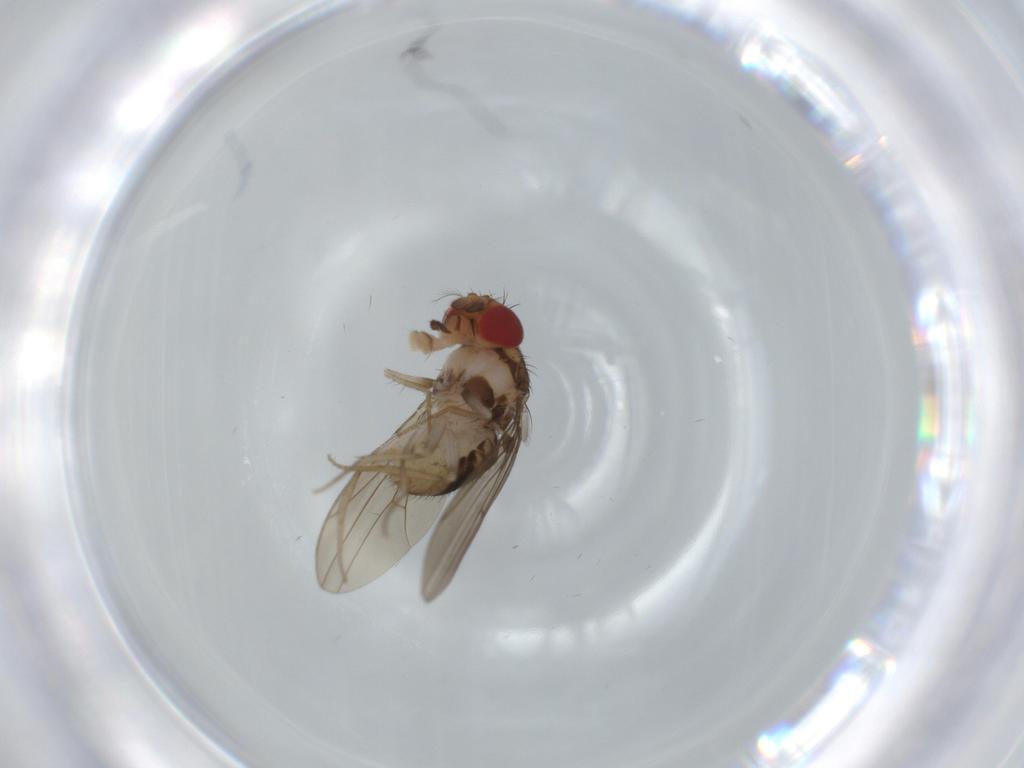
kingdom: Animalia
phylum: Arthropoda
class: Insecta
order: Diptera
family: Drosophilidae
